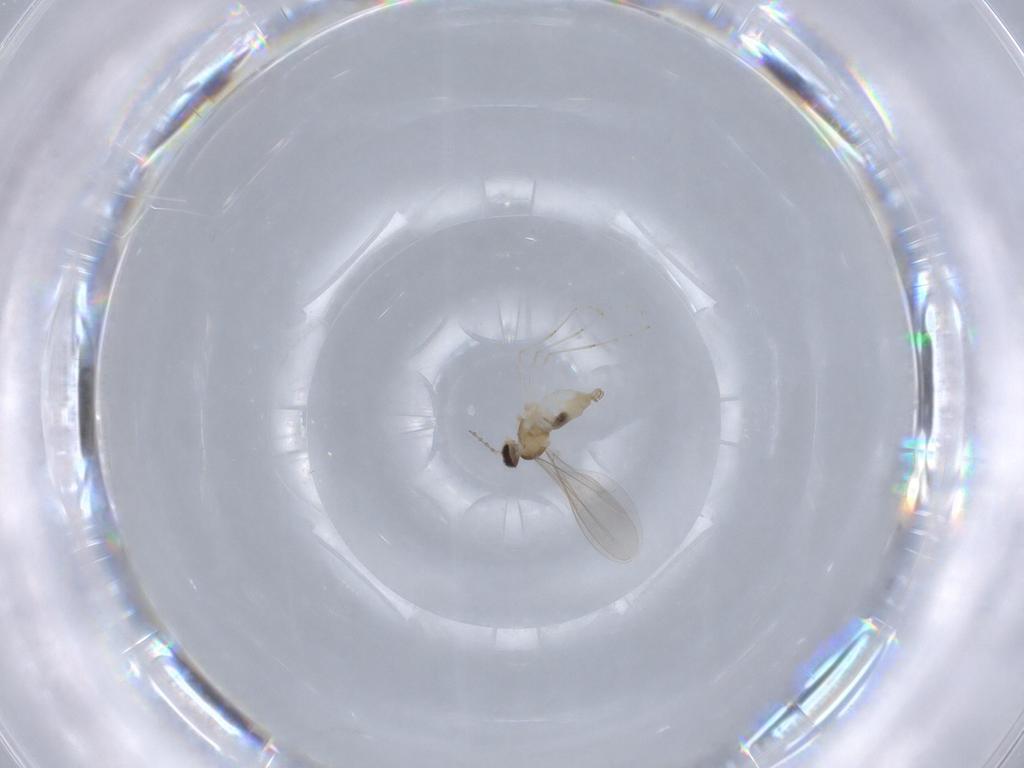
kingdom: Animalia
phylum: Arthropoda
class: Insecta
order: Diptera
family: Cecidomyiidae
